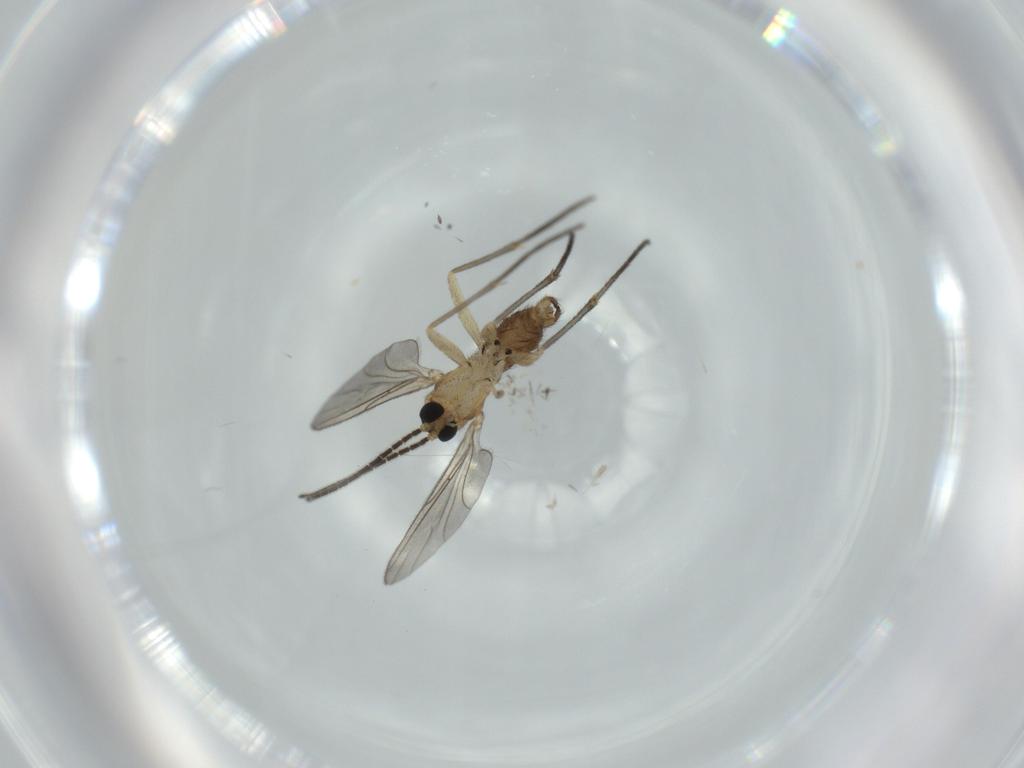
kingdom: Animalia
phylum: Arthropoda
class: Insecta
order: Diptera
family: Sciaridae
